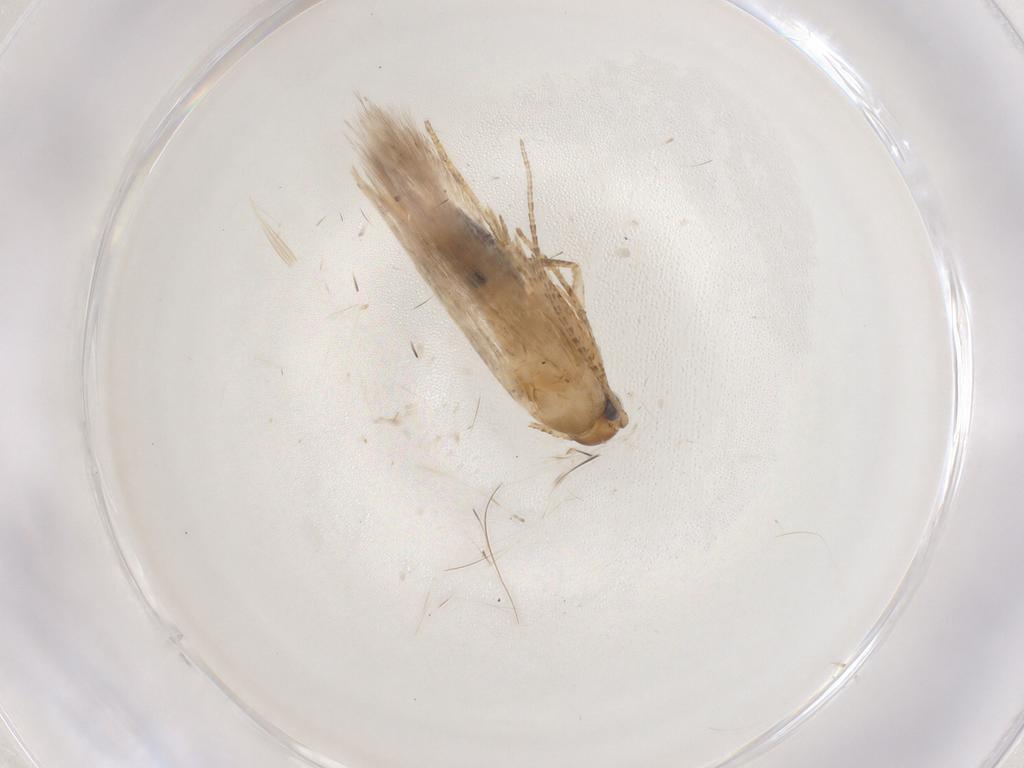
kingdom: Animalia
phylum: Arthropoda
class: Insecta
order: Lepidoptera
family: Gelechiidae
